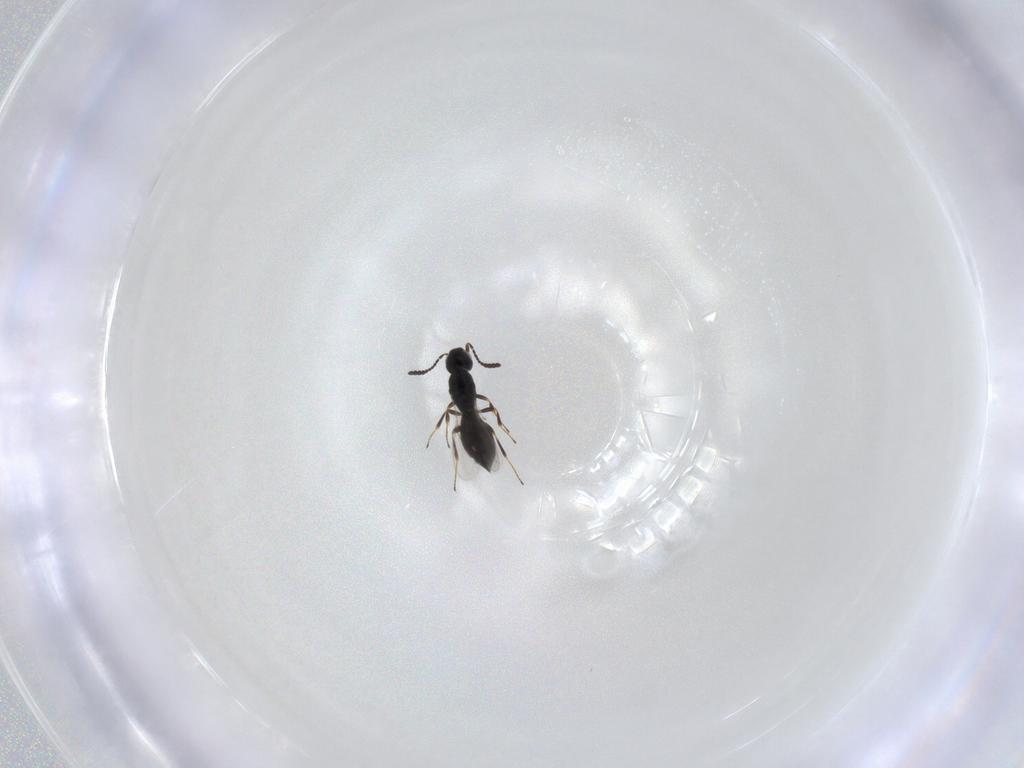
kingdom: Animalia
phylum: Arthropoda
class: Insecta
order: Hymenoptera
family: Scelionidae
